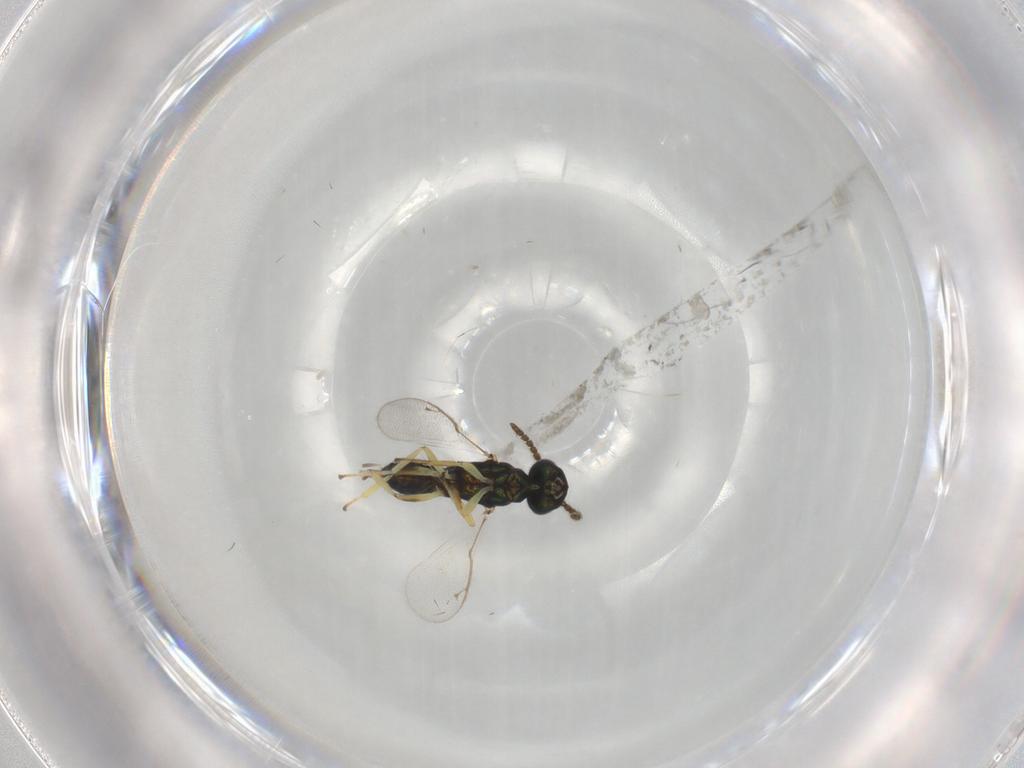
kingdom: Animalia
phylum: Arthropoda
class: Insecta
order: Hymenoptera
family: Eupelmidae
